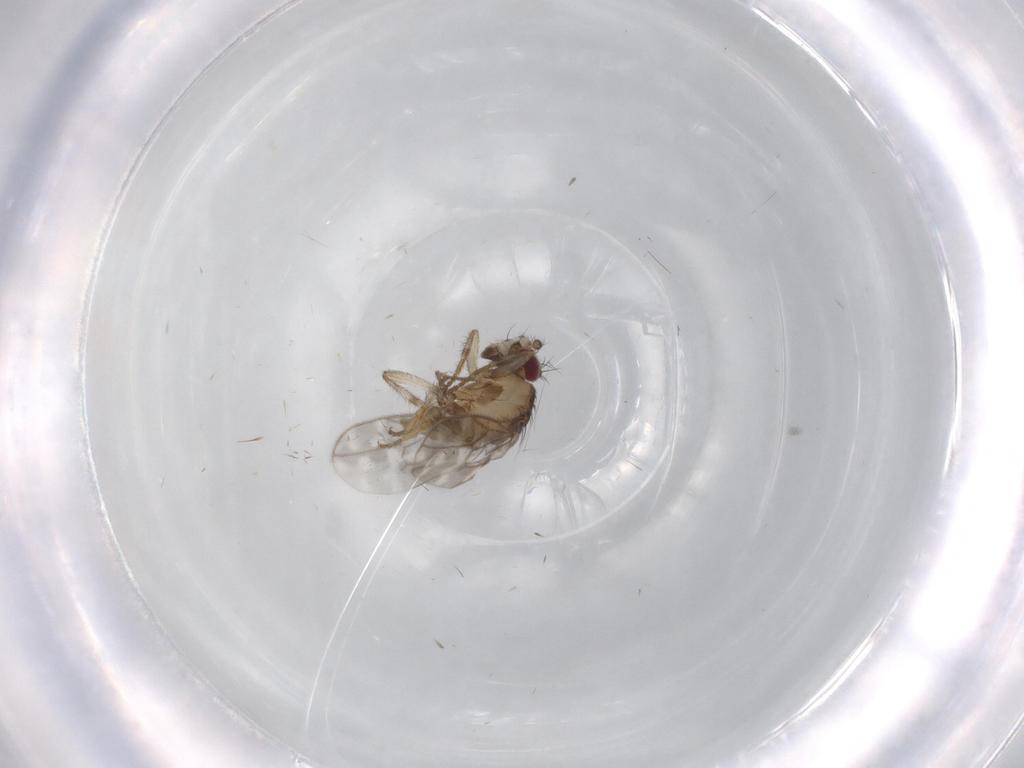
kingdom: Animalia
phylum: Arthropoda
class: Insecta
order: Diptera
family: Sphaeroceridae
